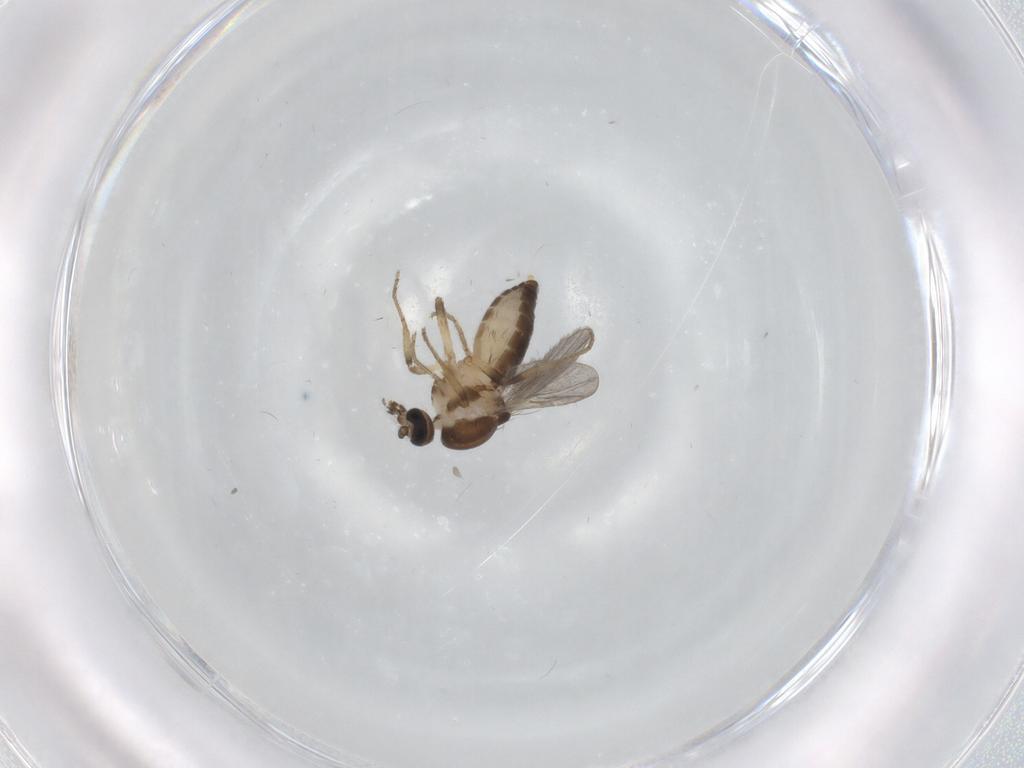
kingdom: Animalia
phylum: Arthropoda
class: Insecta
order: Diptera
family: Ceratopogonidae
